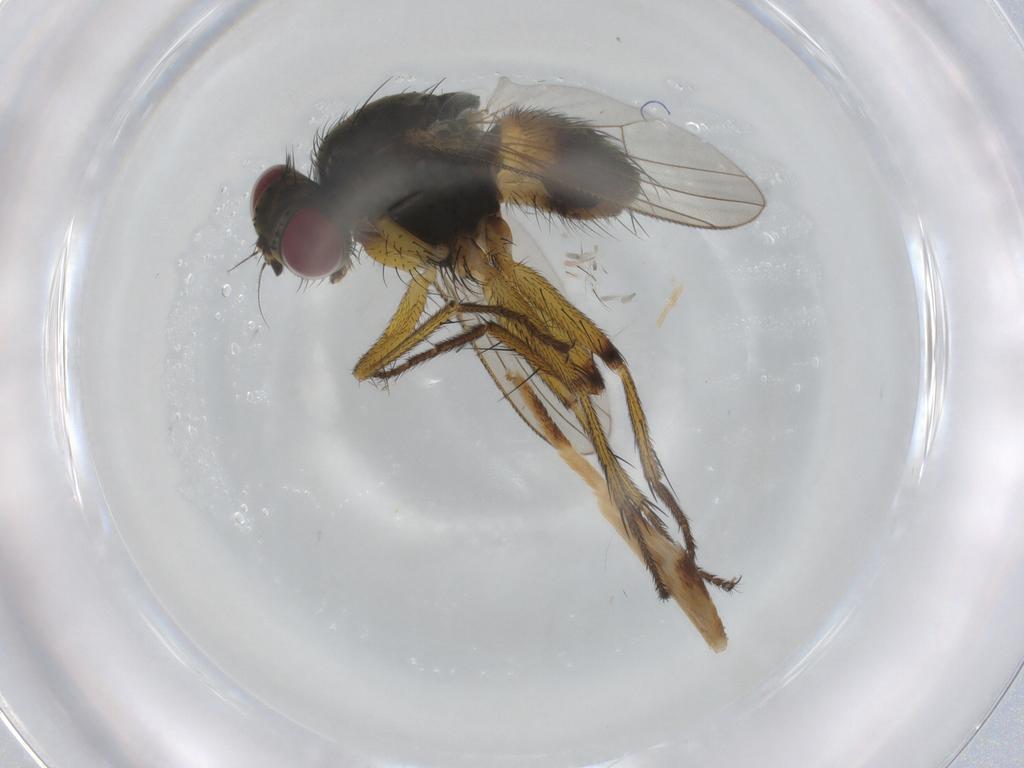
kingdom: Animalia
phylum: Arthropoda
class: Insecta
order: Diptera
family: Muscidae
